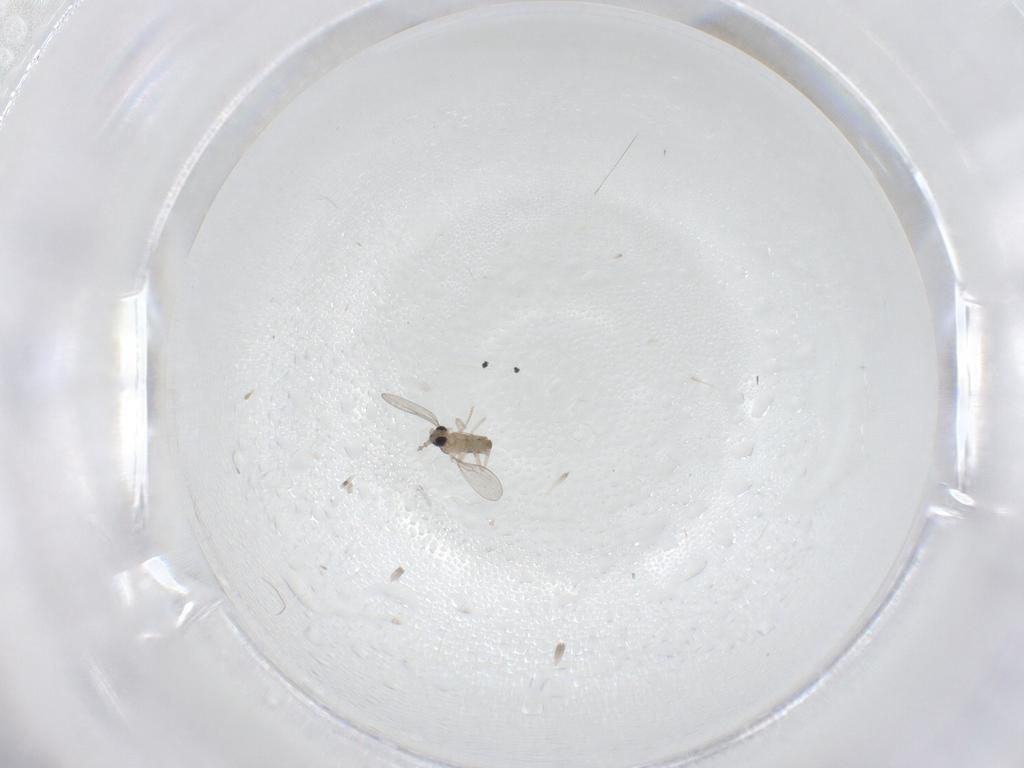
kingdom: Animalia
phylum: Arthropoda
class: Insecta
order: Diptera
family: Cecidomyiidae
